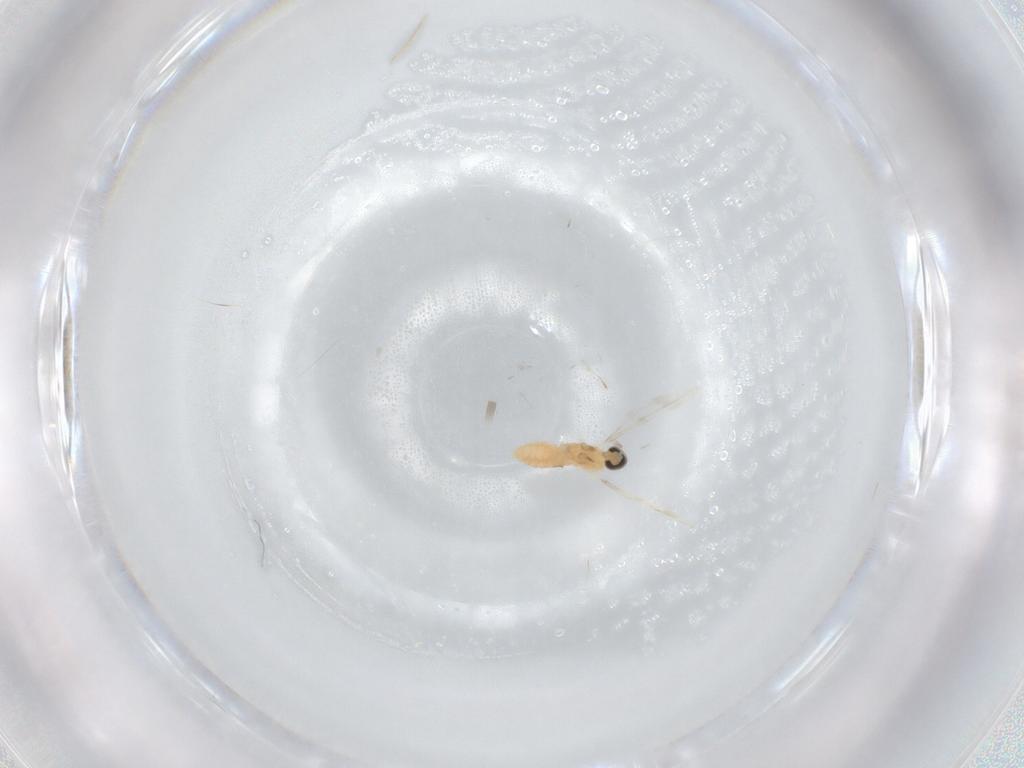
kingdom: Animalia
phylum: Arthropoda
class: Insecta
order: Diptera
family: Cecidomyiidae
